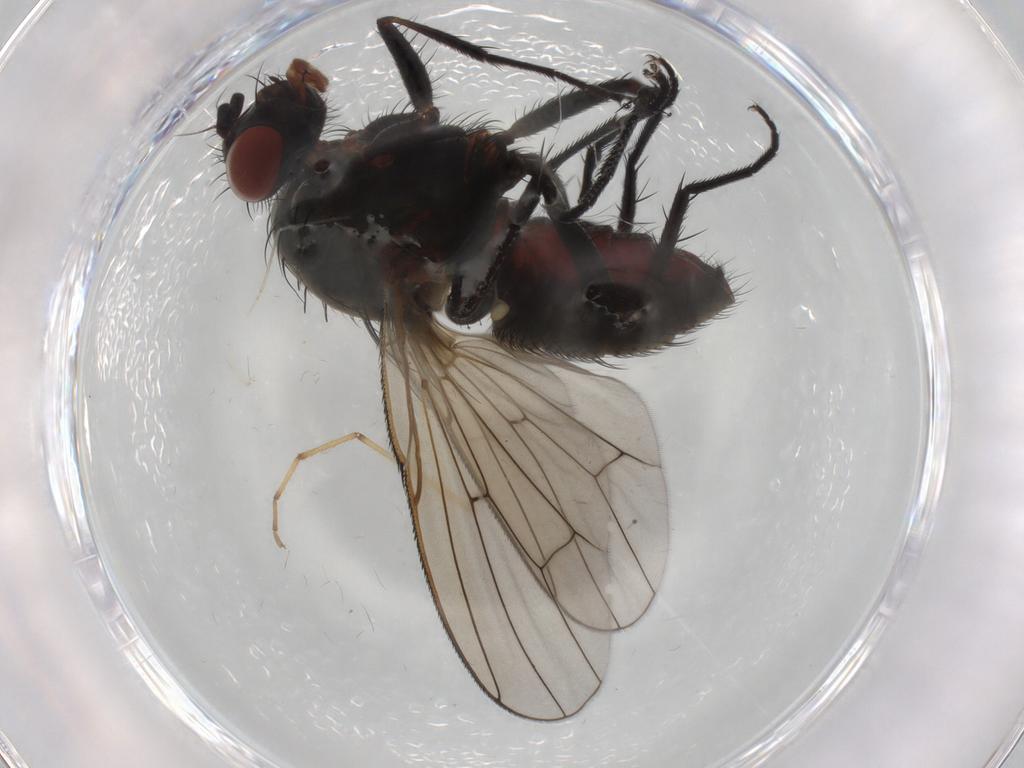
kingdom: Animalia
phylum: Arthropoda
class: Insecta
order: Diptera
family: Anthomyiidae
